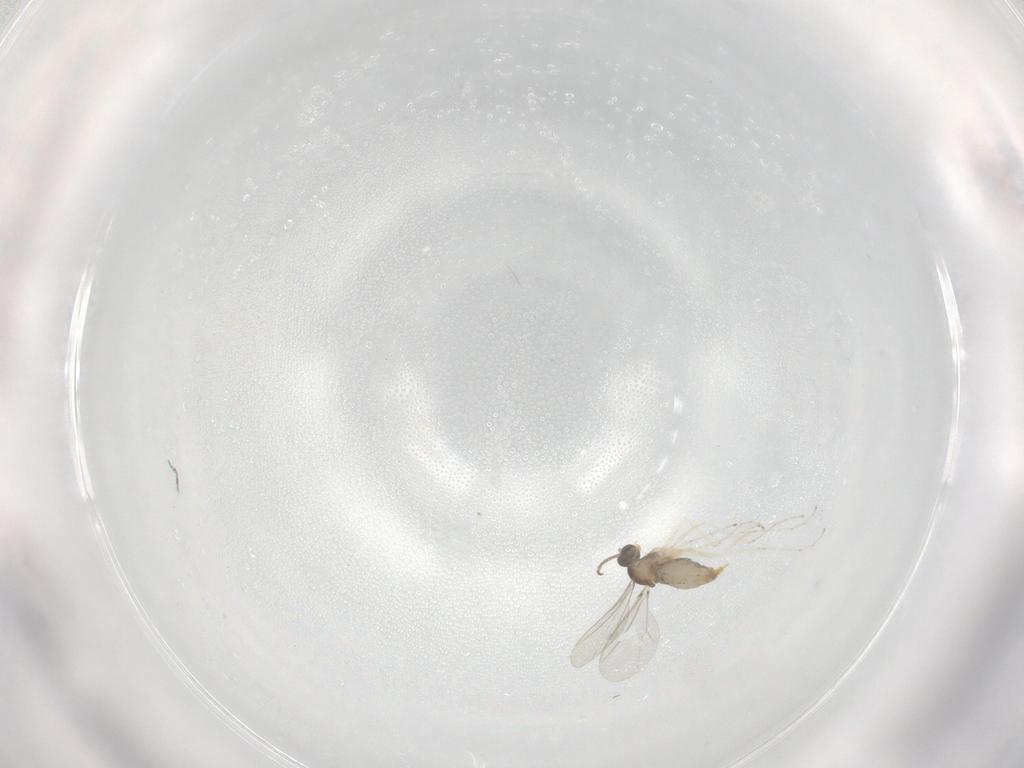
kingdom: Animalia
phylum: Arthropoda
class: Insecta
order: Diptera
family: Cecidomyiidae
